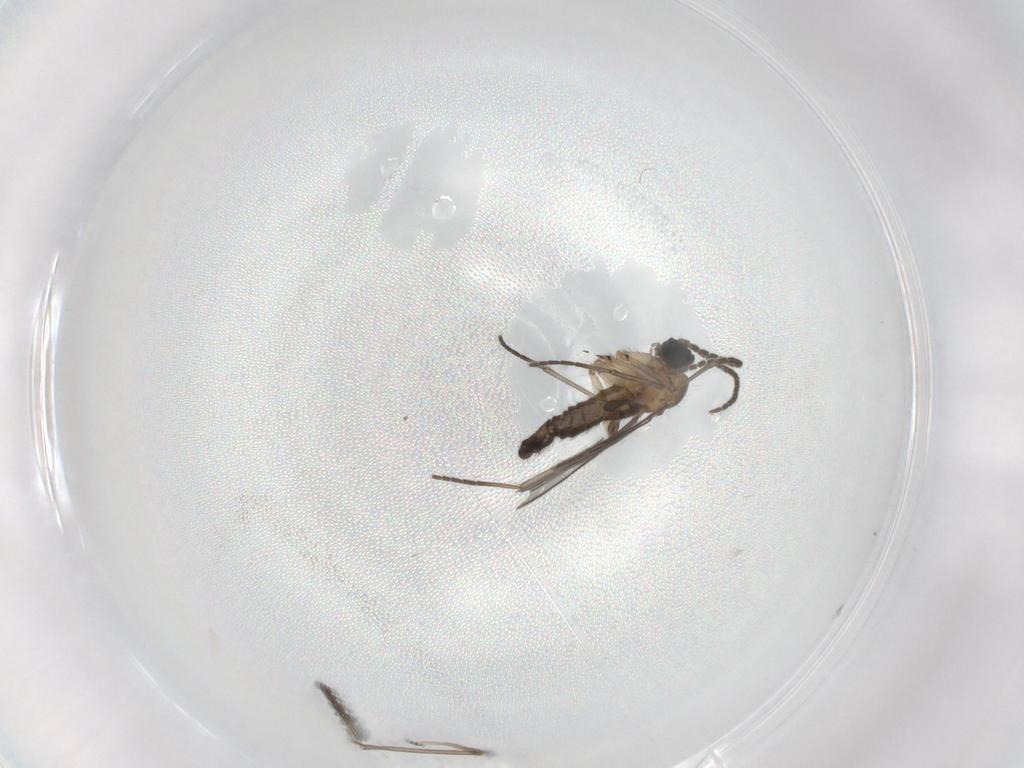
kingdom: Animalia
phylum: Arthropoda
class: Insecta
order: Diptera
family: Sciaridae
